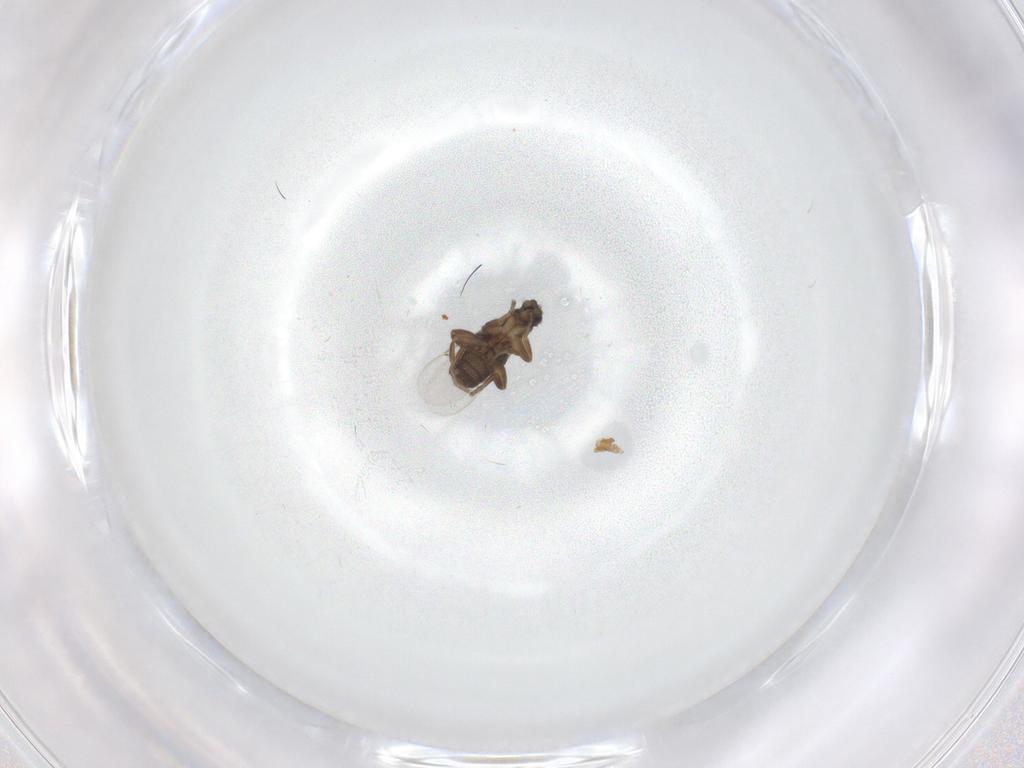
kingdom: Animalia
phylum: Arthropoda
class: Insecta
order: Diptera
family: Phoridae
